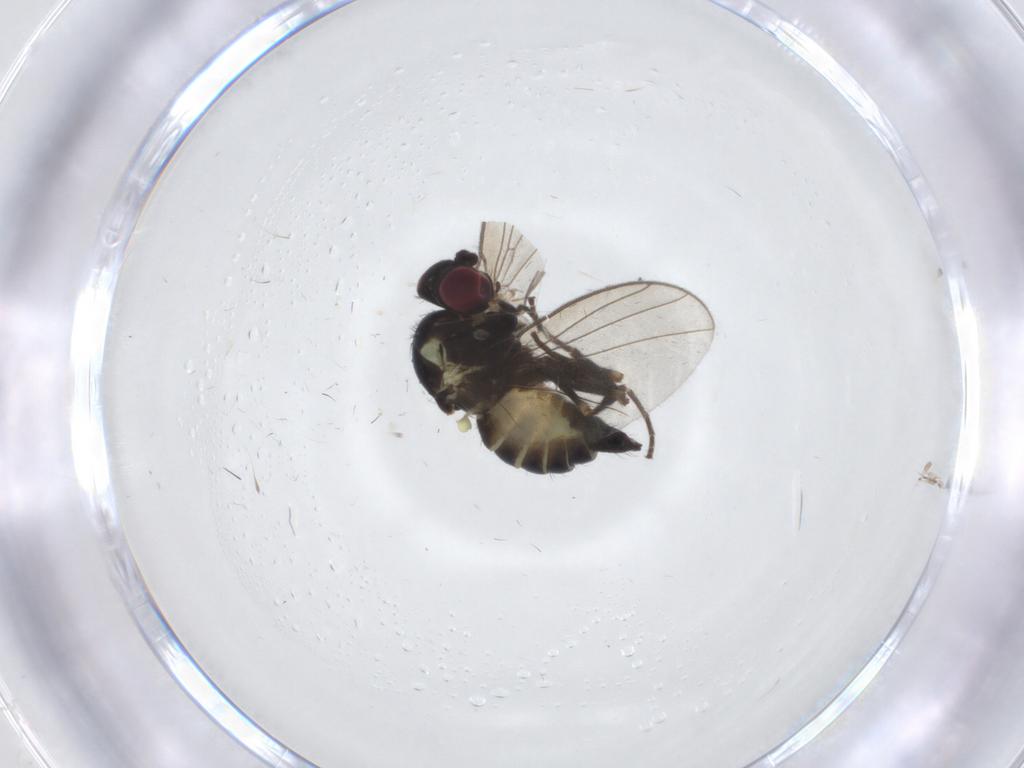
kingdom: Animalia
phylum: Arthropoda
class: Insecta
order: Diptera
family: Agromyzidae
